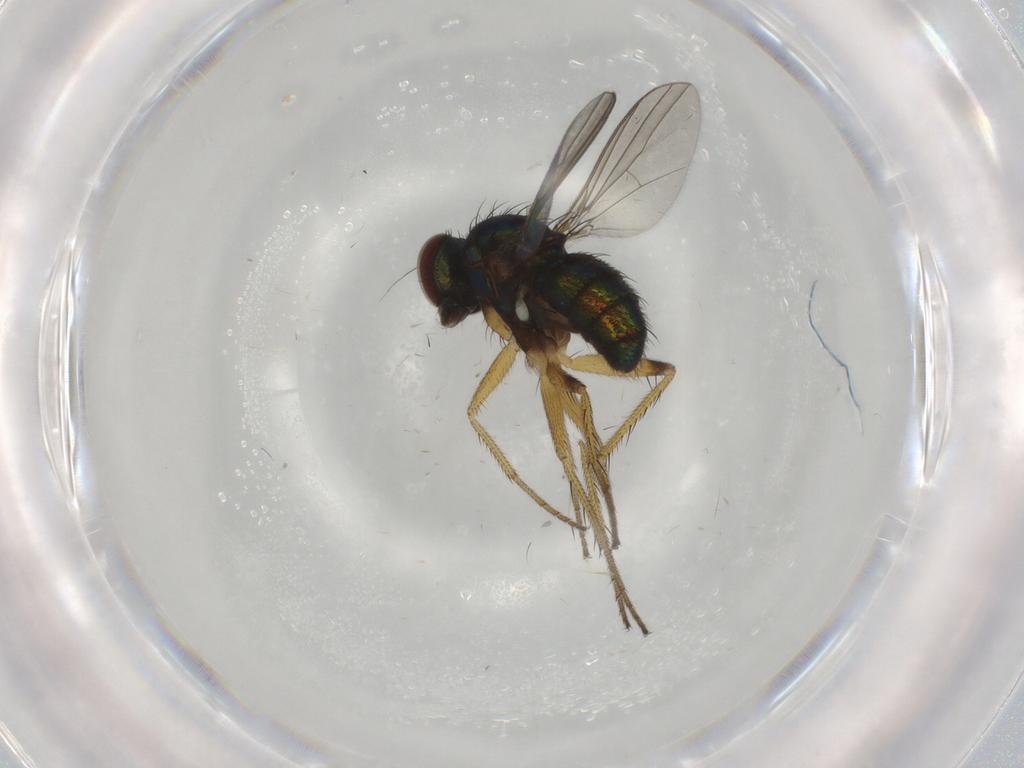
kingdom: Animalia
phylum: Arthropoda
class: Insecta
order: Diptera
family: Dolichopodidae
